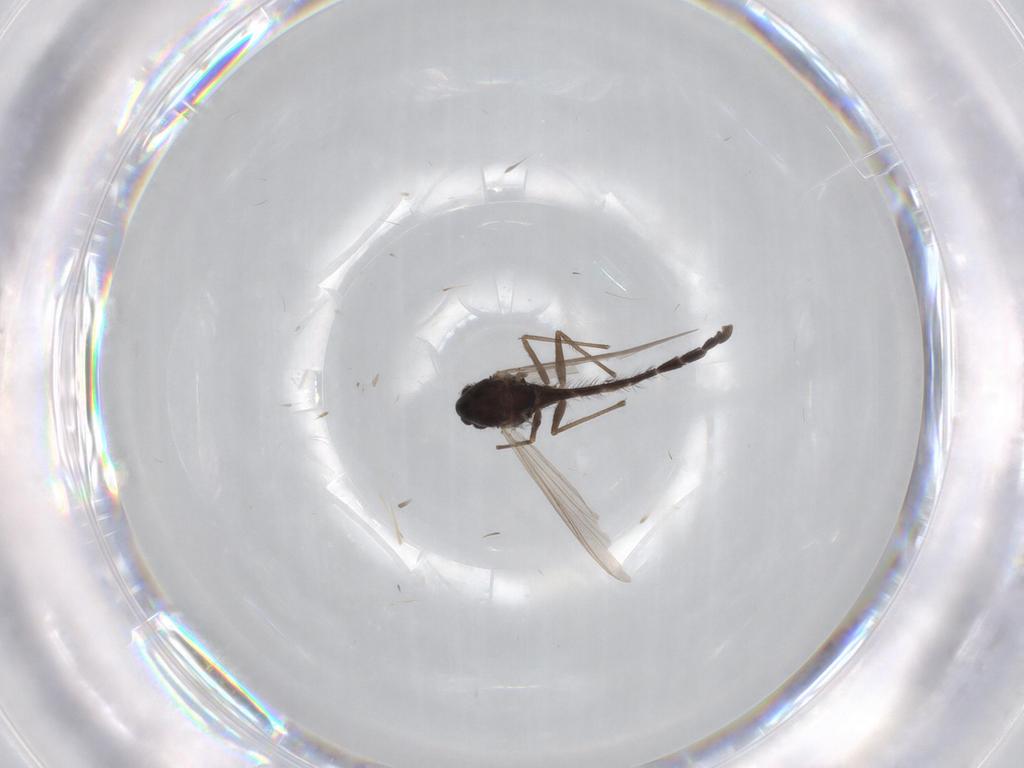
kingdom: Animalia
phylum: Arthropoda
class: Insecta
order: Diptera
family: Chironomidae
